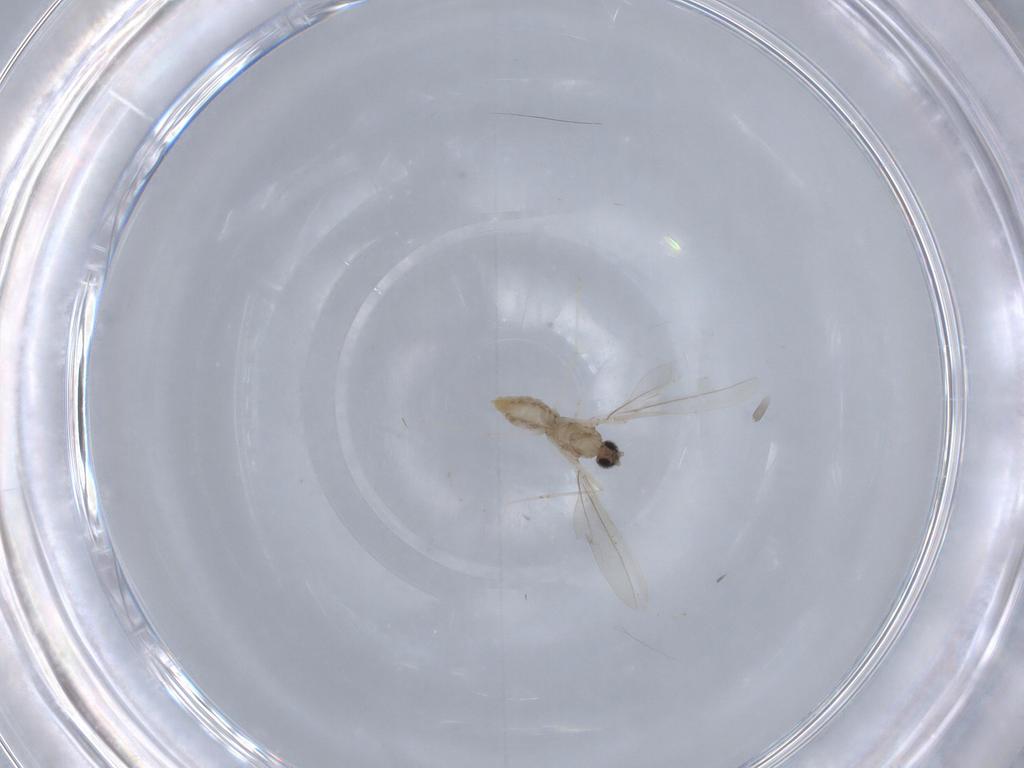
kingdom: Animalia
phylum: Arthropoda
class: Insecta
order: Diptera
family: Cecidomyiidae
